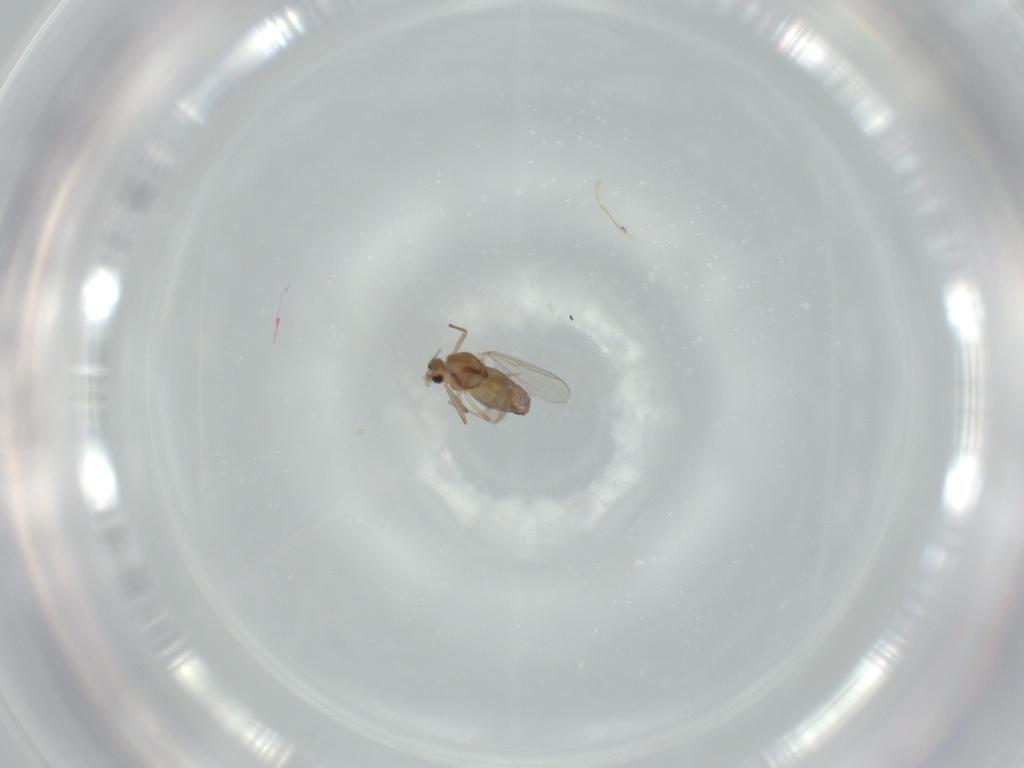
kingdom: Animalia
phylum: Arthropoda
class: Insecta
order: Diptera
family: Chironomidae
